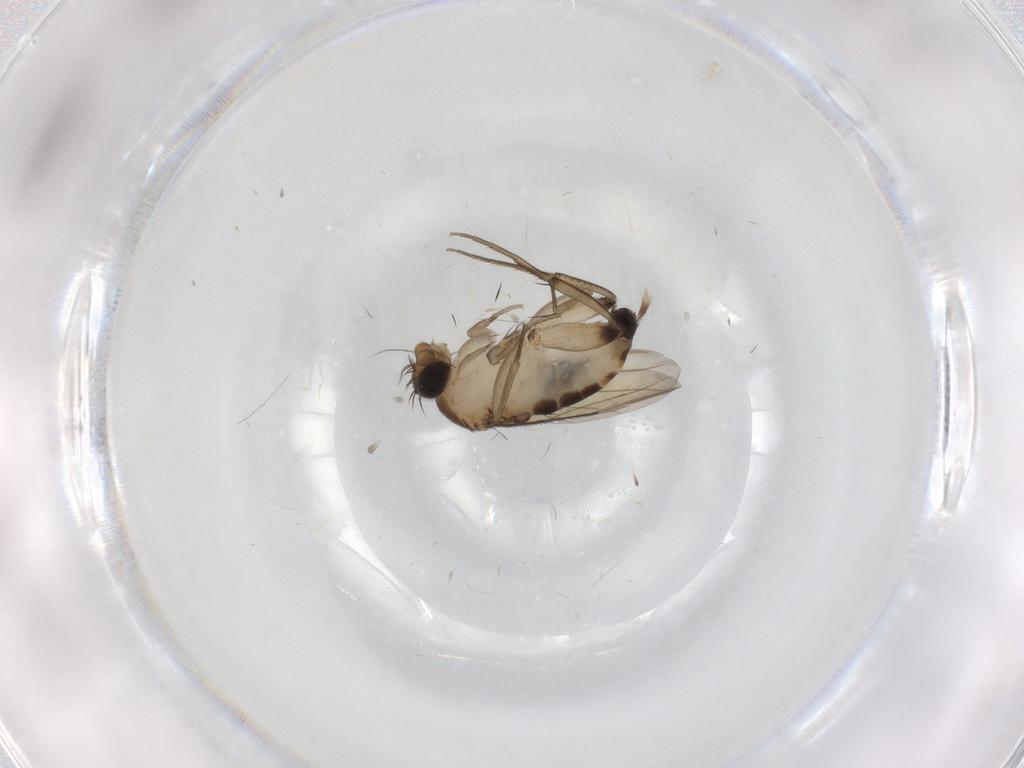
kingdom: Animalia
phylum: Arthropoda
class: Insecta
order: Diptera
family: Phoridae
